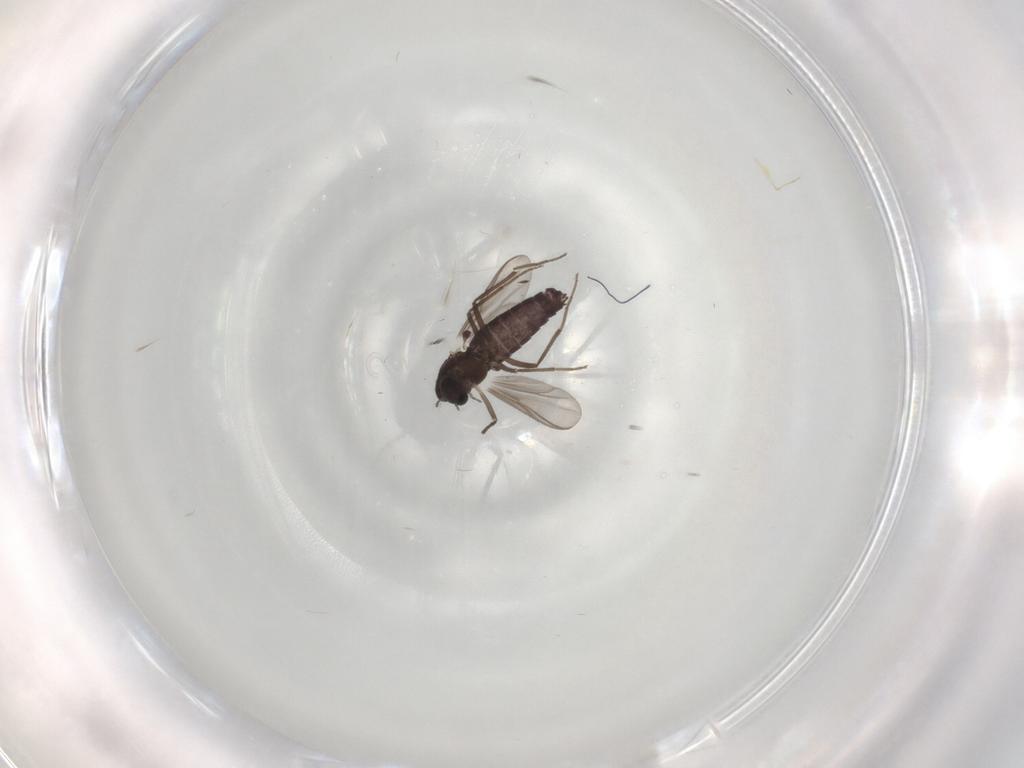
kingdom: Animalia
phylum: Arthropoda
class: Insecta
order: Diptera
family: Chironomidae
